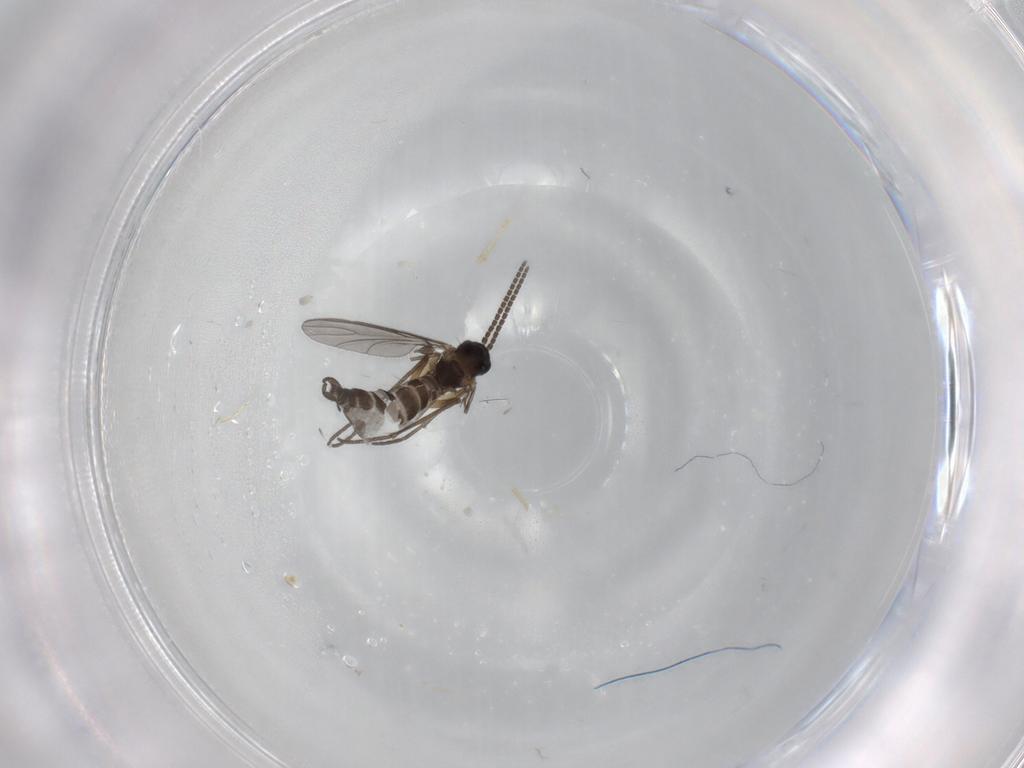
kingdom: Animalia
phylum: Arthropoda
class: Insecta
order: Diptera
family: Sciaridae
